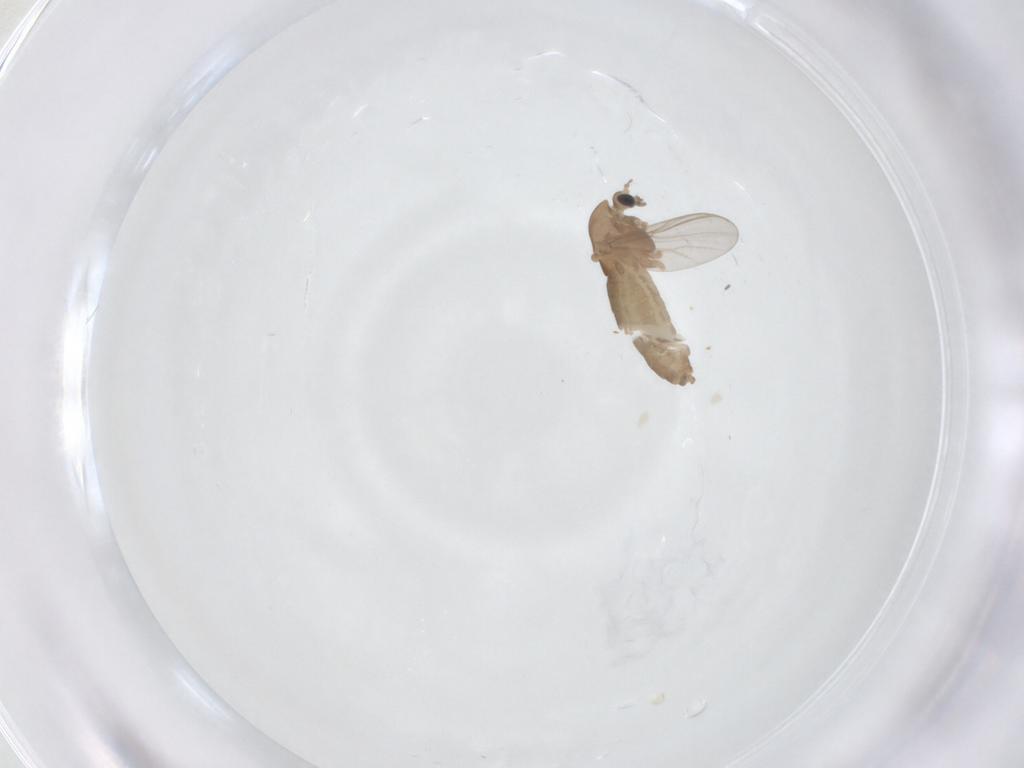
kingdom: Animalia
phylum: Arthropoda
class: Insecta
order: Diptera
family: Chironomidae
